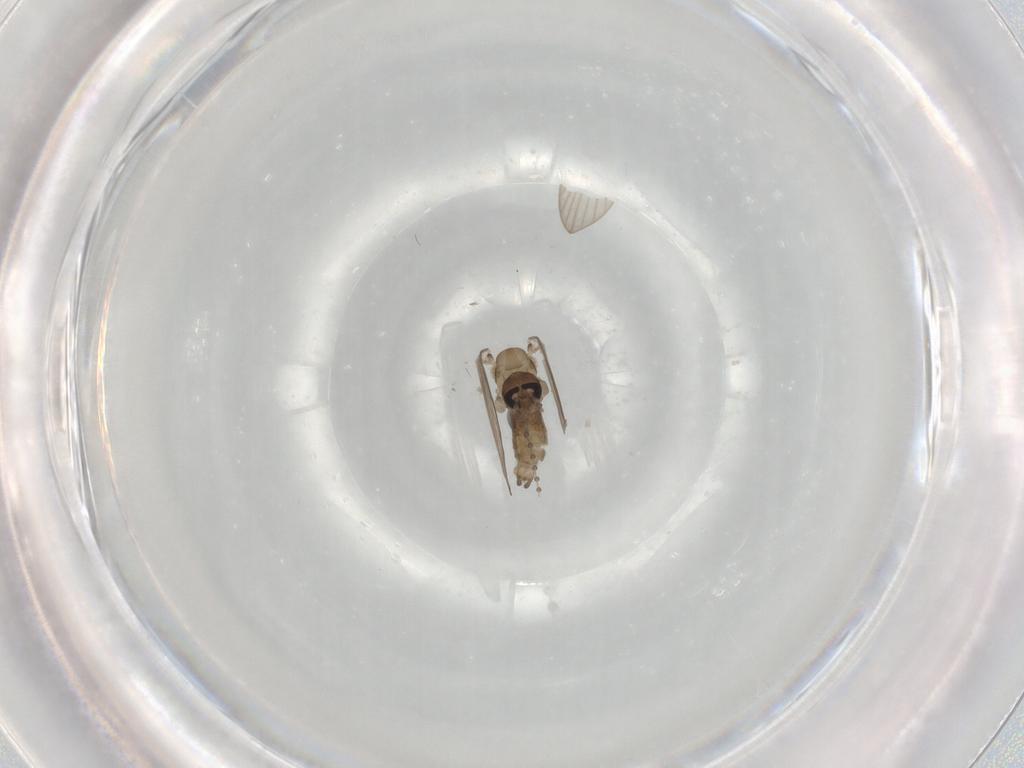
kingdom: Animalia
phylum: Arthropoda
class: Insecta
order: Diptera
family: Psychodidae
